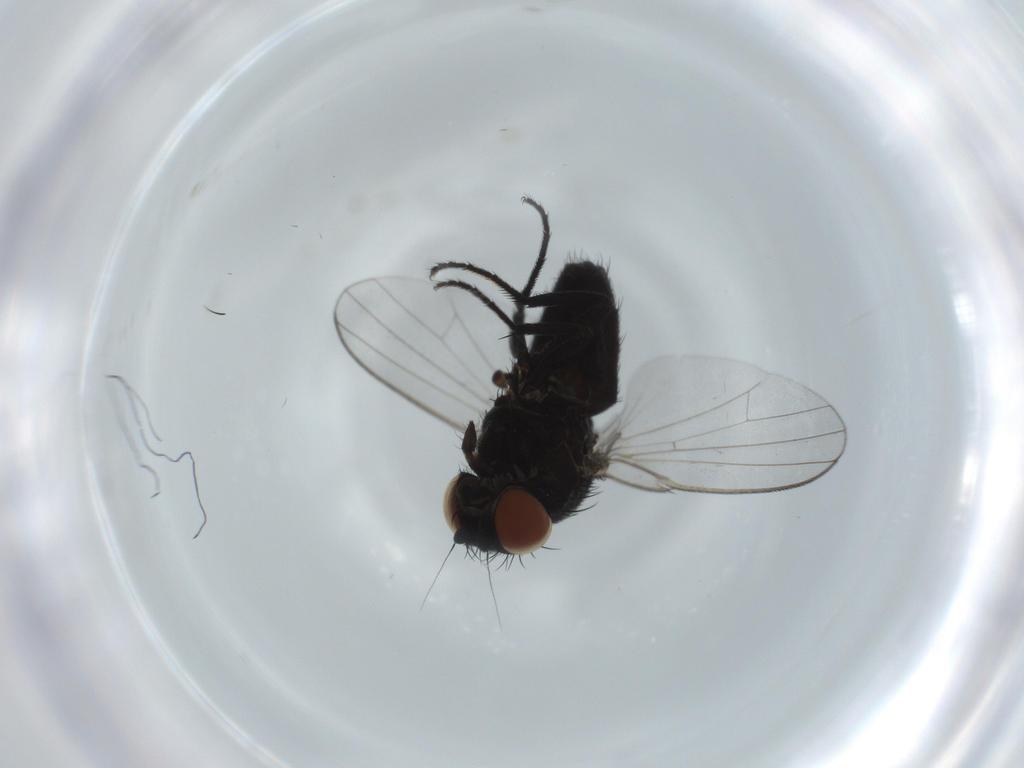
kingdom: Animalia
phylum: Arthropoda
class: Insecta
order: Diptera
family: Milichiidae
